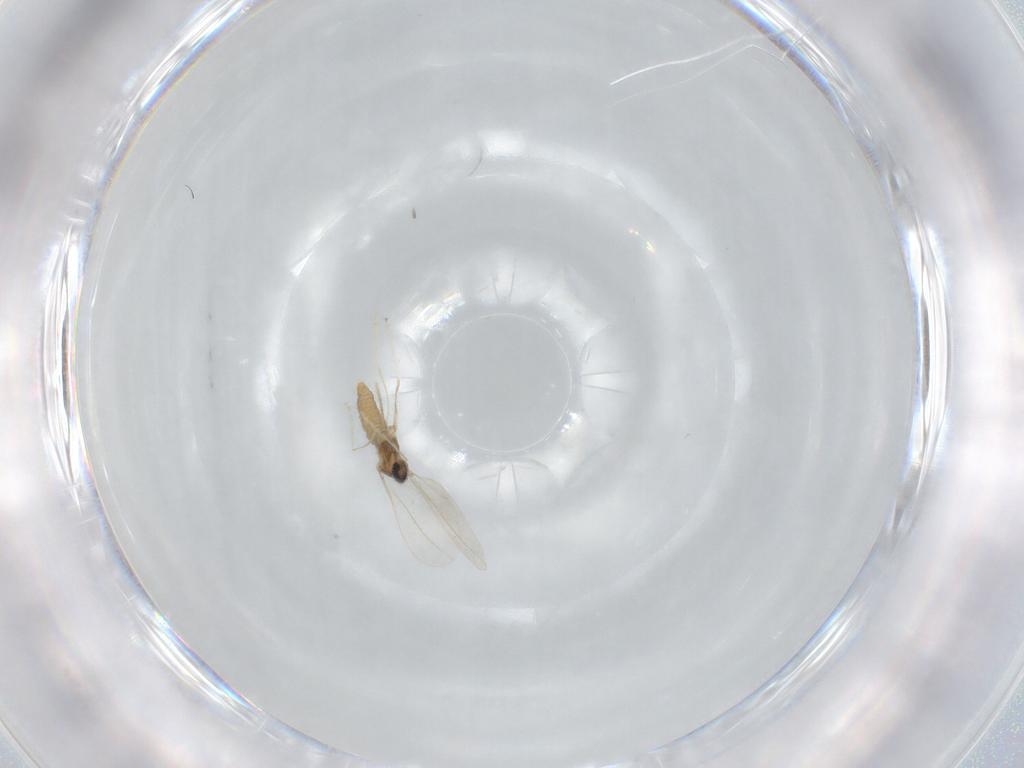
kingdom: Animalia
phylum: Arthropoda
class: Insecta
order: Diptera
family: Cecidomyiidae
